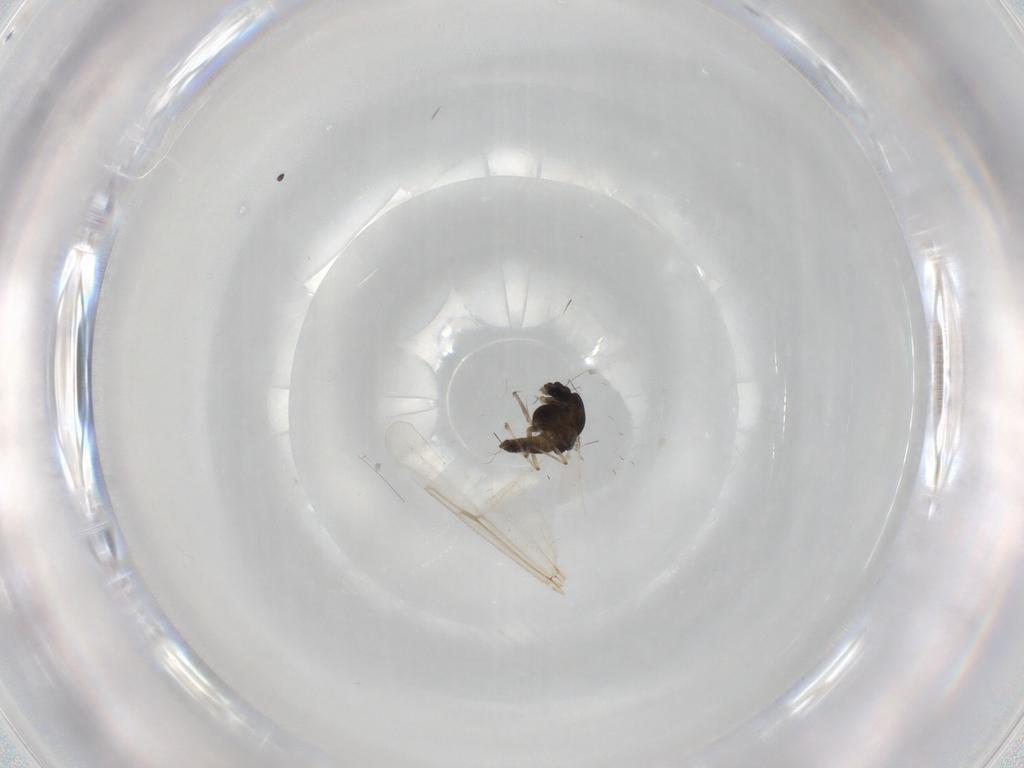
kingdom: Animalia
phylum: Arthropoda
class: Insecta
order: Diptera
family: Chironomidae
